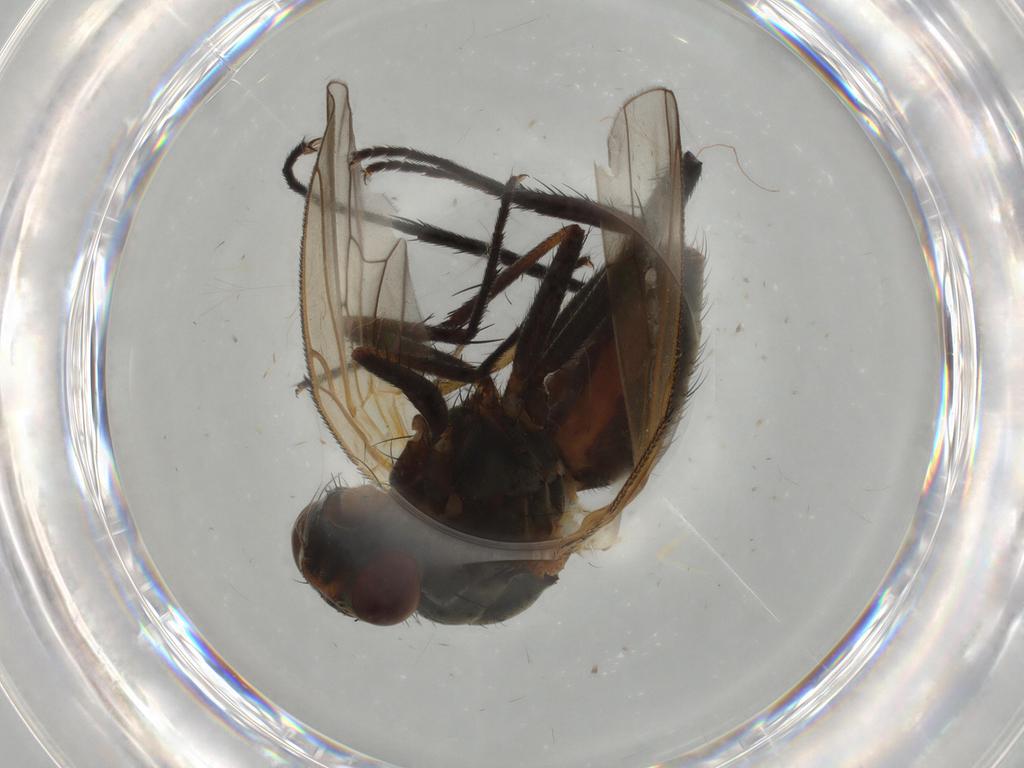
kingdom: Animalia
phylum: Arthropoda
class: Insecta
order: Diptera
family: Anthomyiidae
